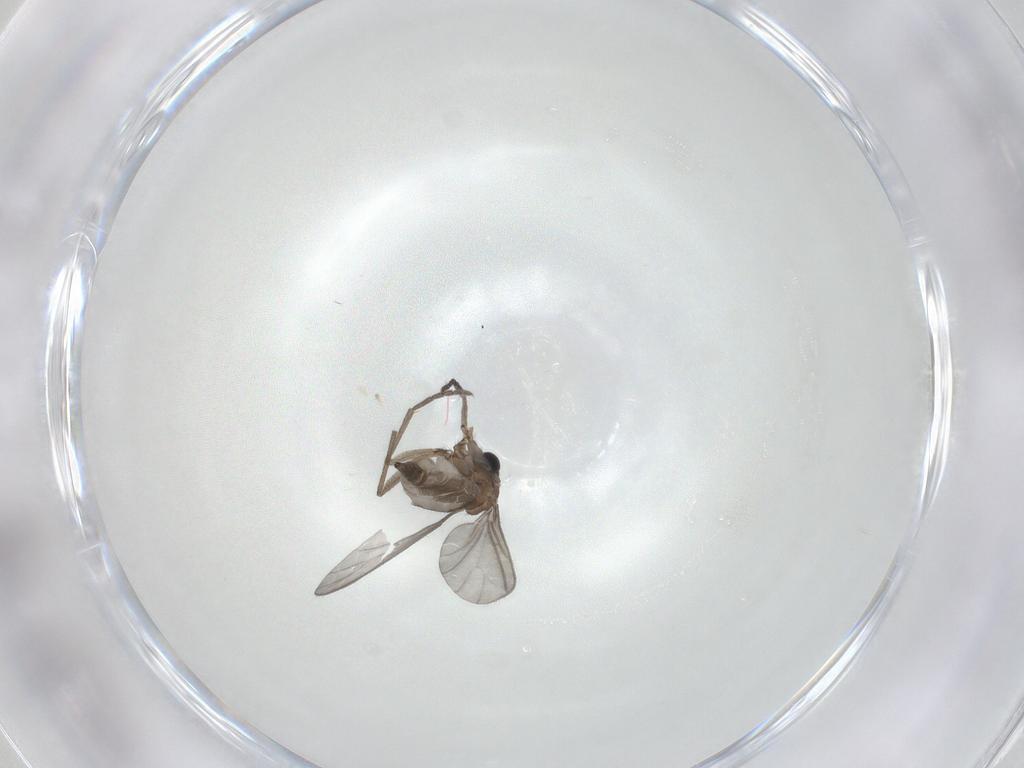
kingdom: Animalia
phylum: Arthropoda
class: Insecta
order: Diptera
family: Sciaridae
